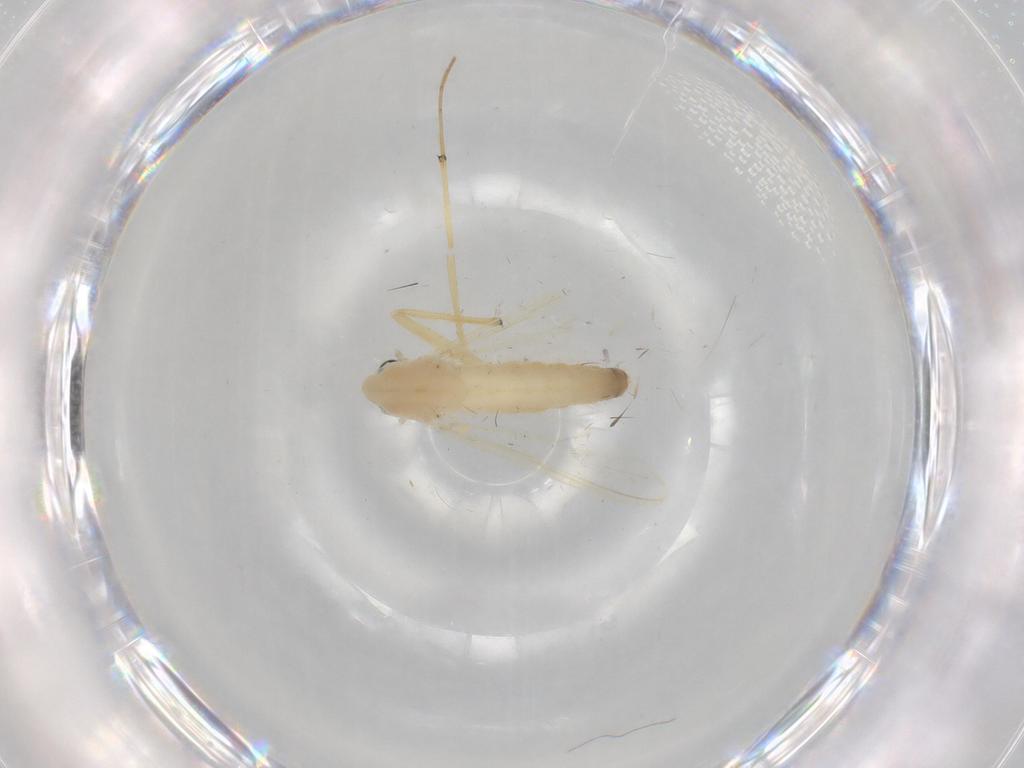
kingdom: Animalia
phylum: Arthropoda
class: Insecta
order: Diptera
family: Chironomidae
